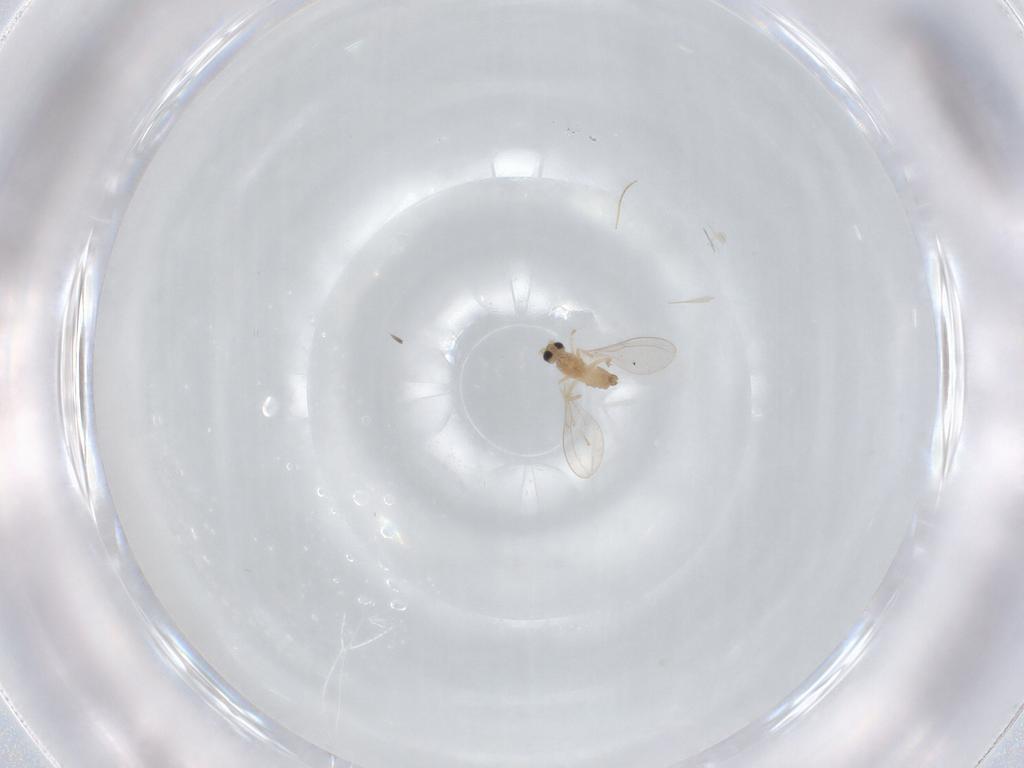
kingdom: Animalia
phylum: Arthropoda
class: Insecta
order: Diptera
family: Cecidomyiidae
